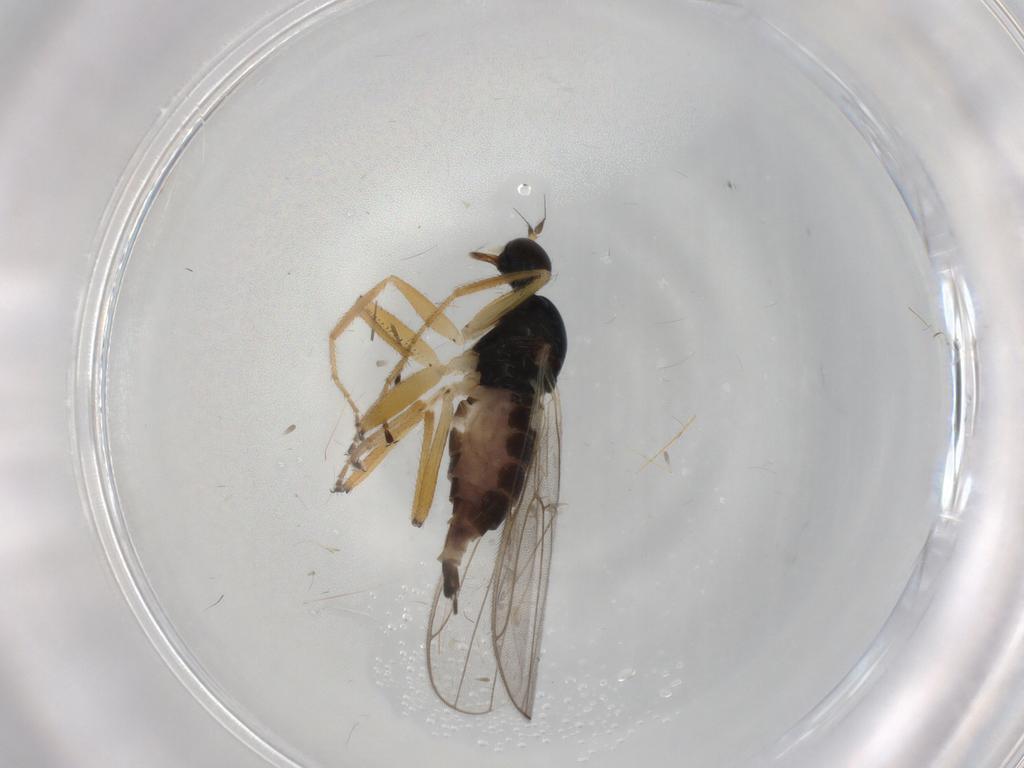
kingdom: Animalia
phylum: Arthropoda
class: Insecta
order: Diptera
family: Hybotidae
